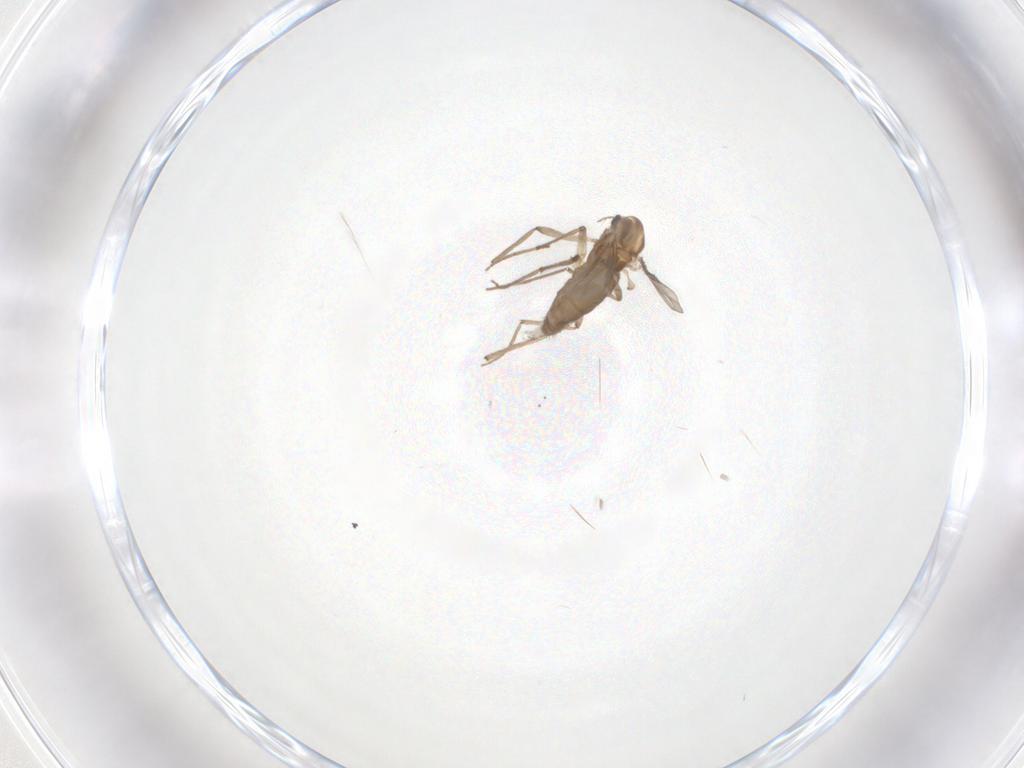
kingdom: Animalia
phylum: Arthropoda
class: Insecta
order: Diptera
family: Chironomidae
